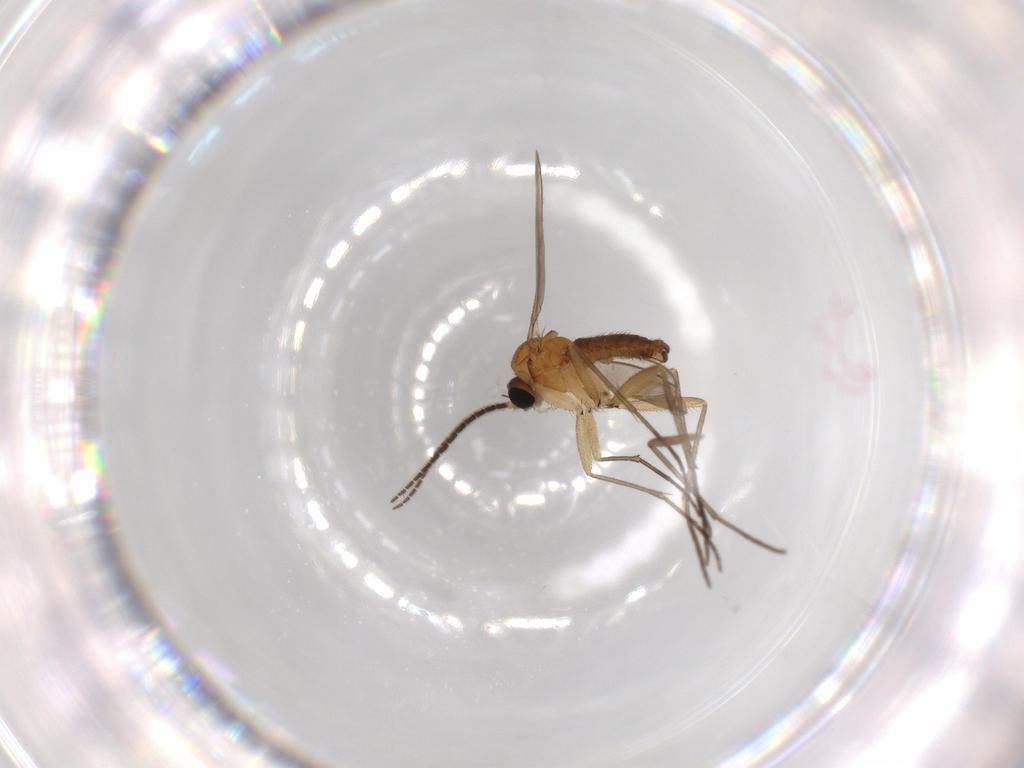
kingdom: Animalia
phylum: Arthropoda
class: Insecta
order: Diptera
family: Sciaridae
